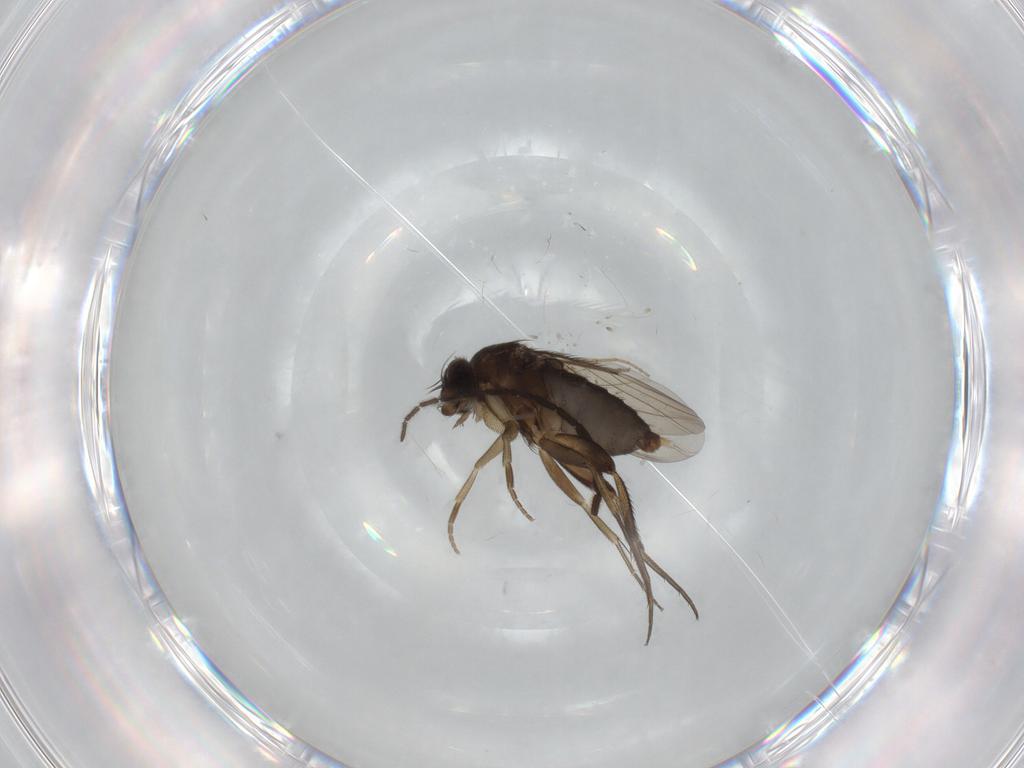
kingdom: Animalia
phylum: Arthropoda
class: Insecta
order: Diptera
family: Phoridae
